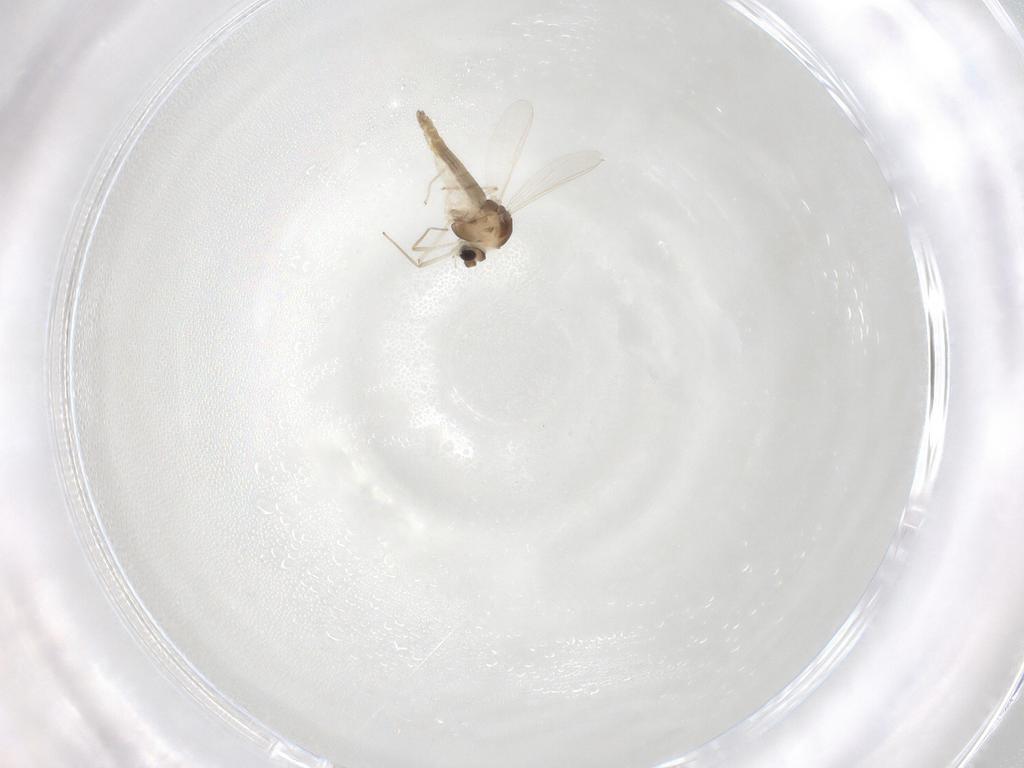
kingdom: Animalia
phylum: Arthropoda
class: Insecta
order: Diptera
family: Chironomidae
